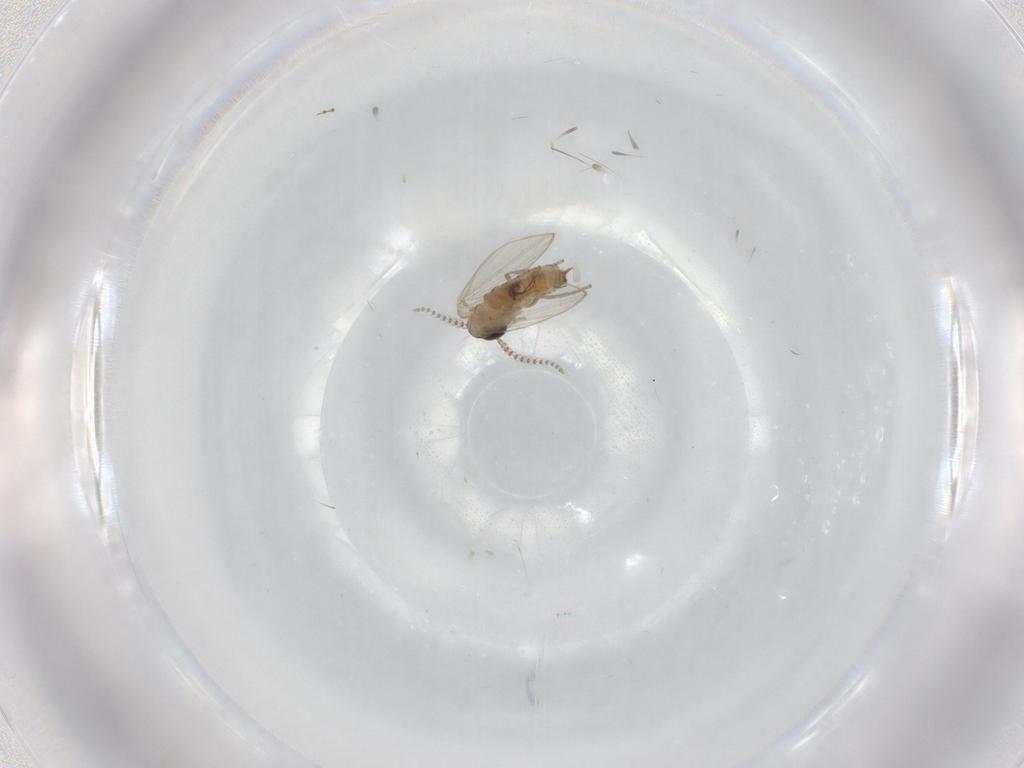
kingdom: Animalia
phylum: Arthropoda
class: Insecta
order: Diptera
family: Psychodidae
